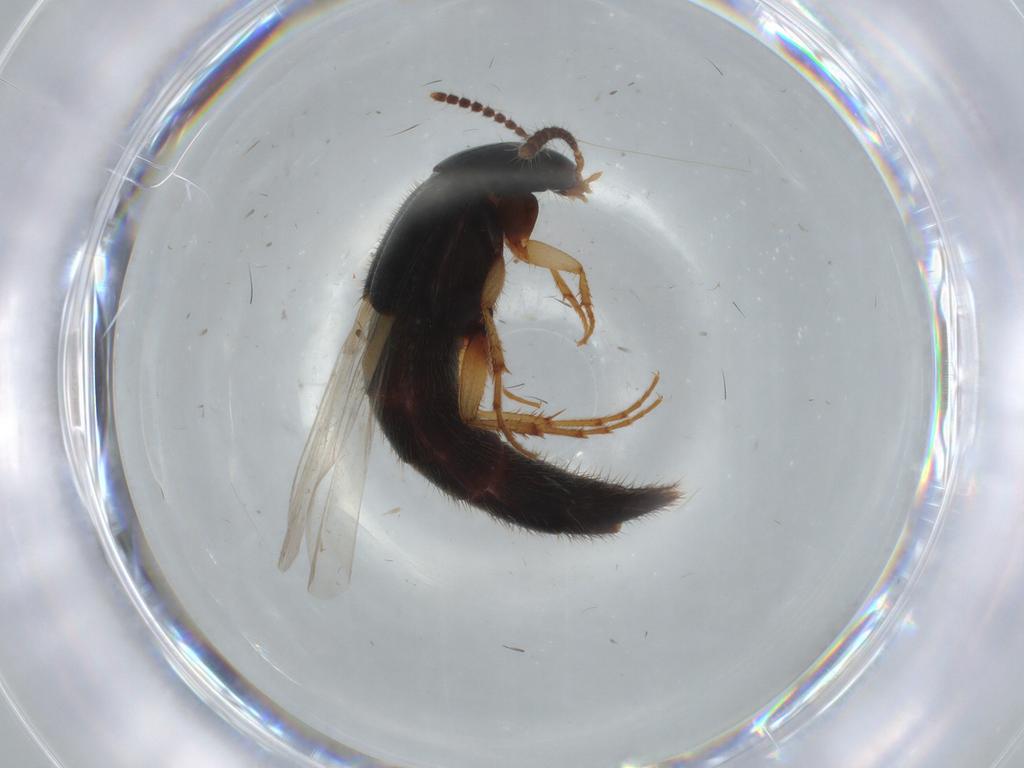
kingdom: Animalia
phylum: Arthropoda
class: Insecta
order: Coleoptera
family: Staphylinidae
